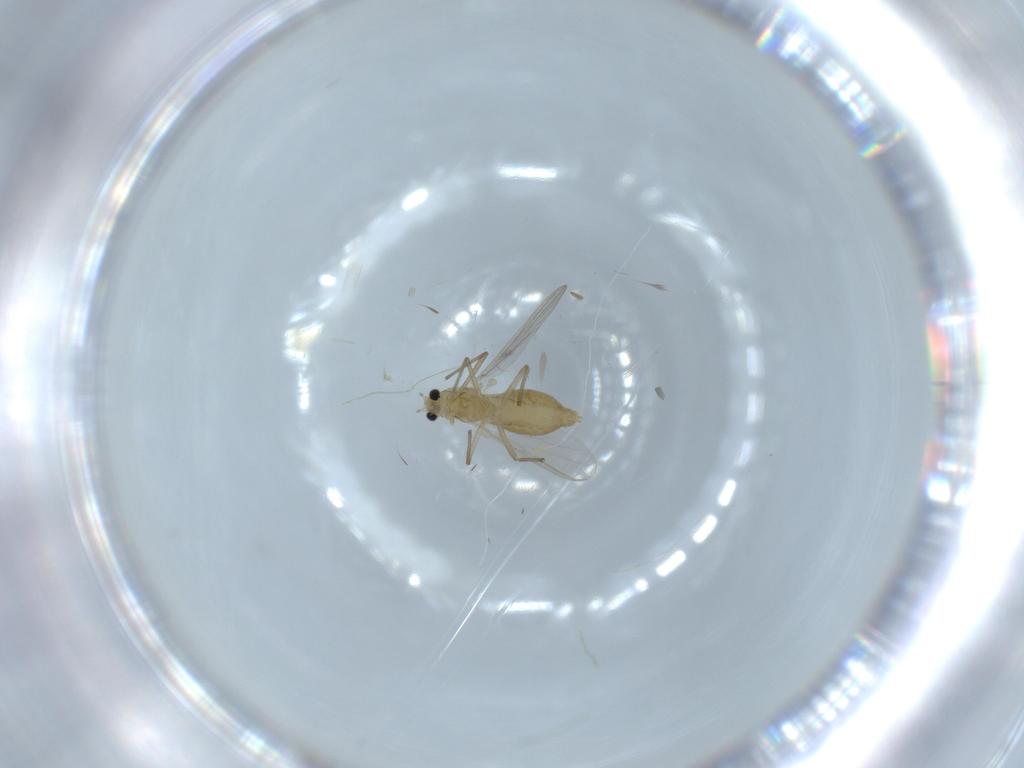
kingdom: Animalia
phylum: Arthropoda
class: Insecta
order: Diptera
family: Chironomidae
